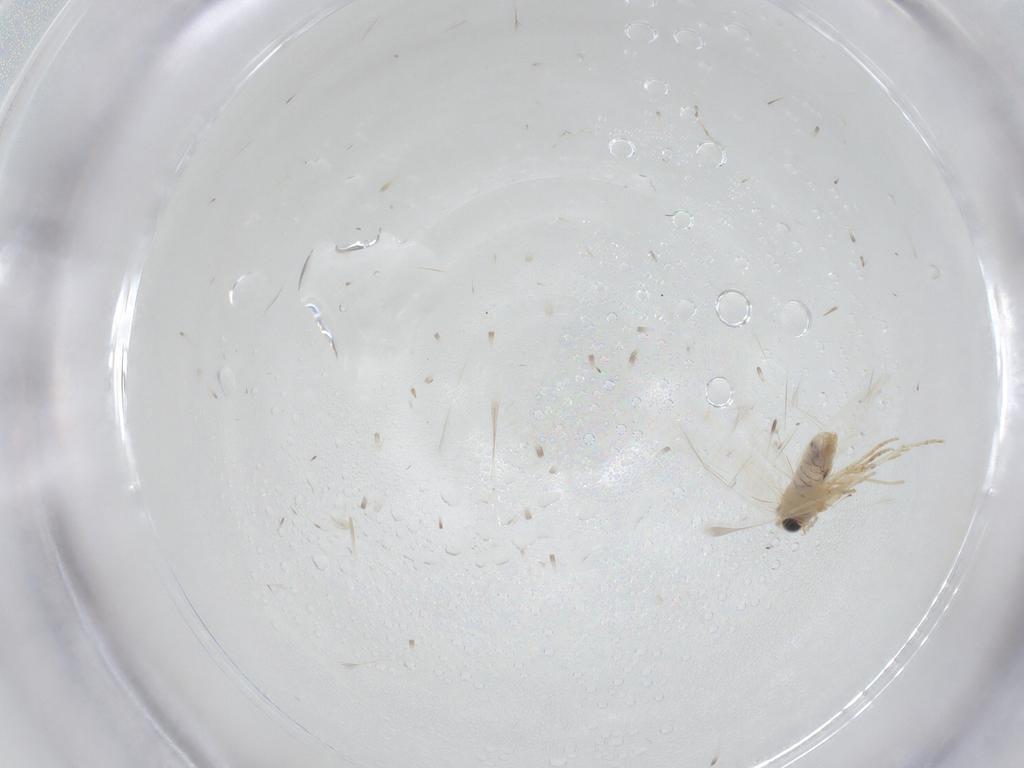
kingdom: Animalia
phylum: Arthropoda
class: Insecta
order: Lepidoptera
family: Nepticulidae
